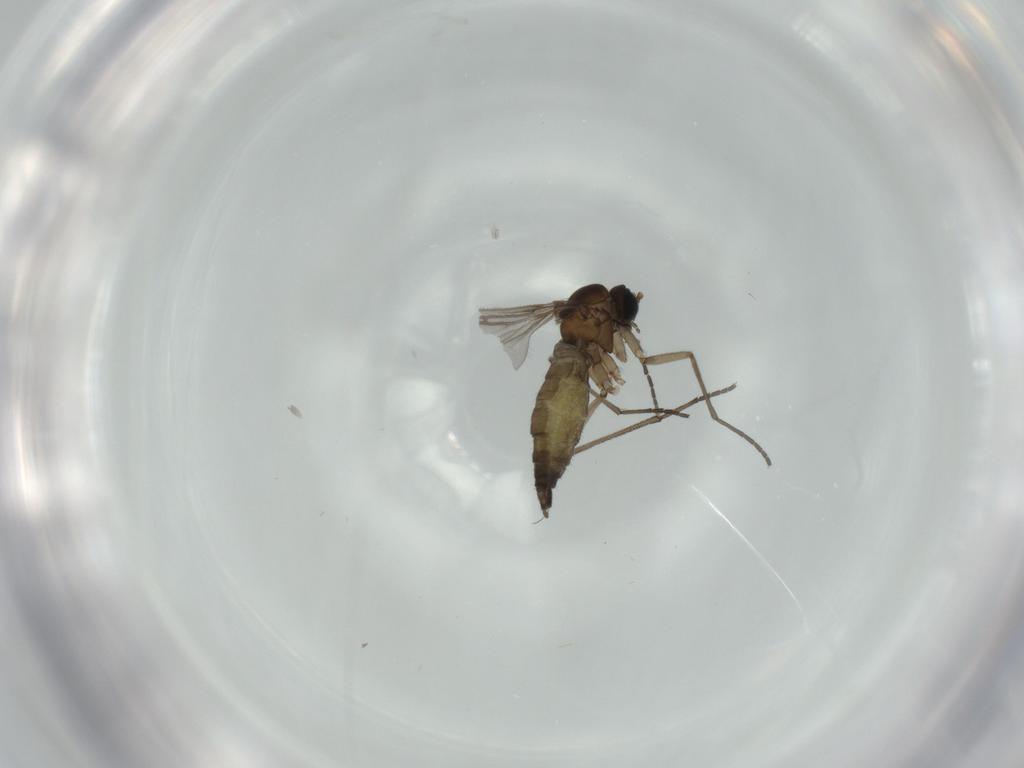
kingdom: Animalia
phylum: Arthropoda
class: Insecta
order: Diptera
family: Sciaridae
